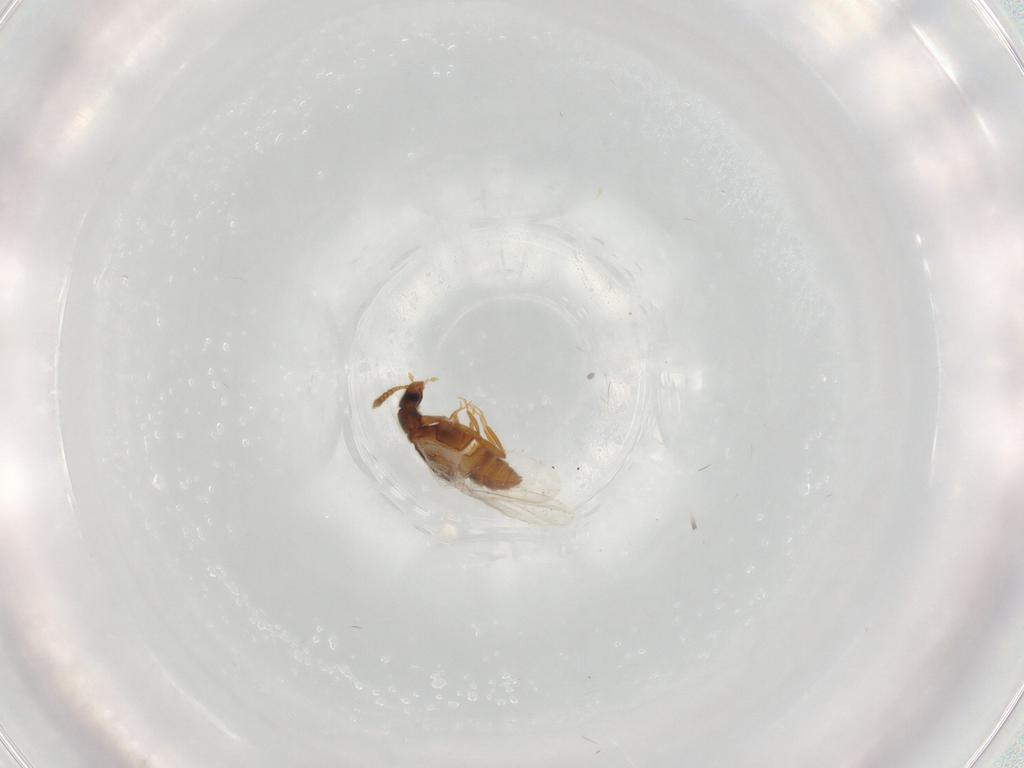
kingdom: Animalia
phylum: Arthropoda
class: Insecta
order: Coleoptera
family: Staphylinidae
